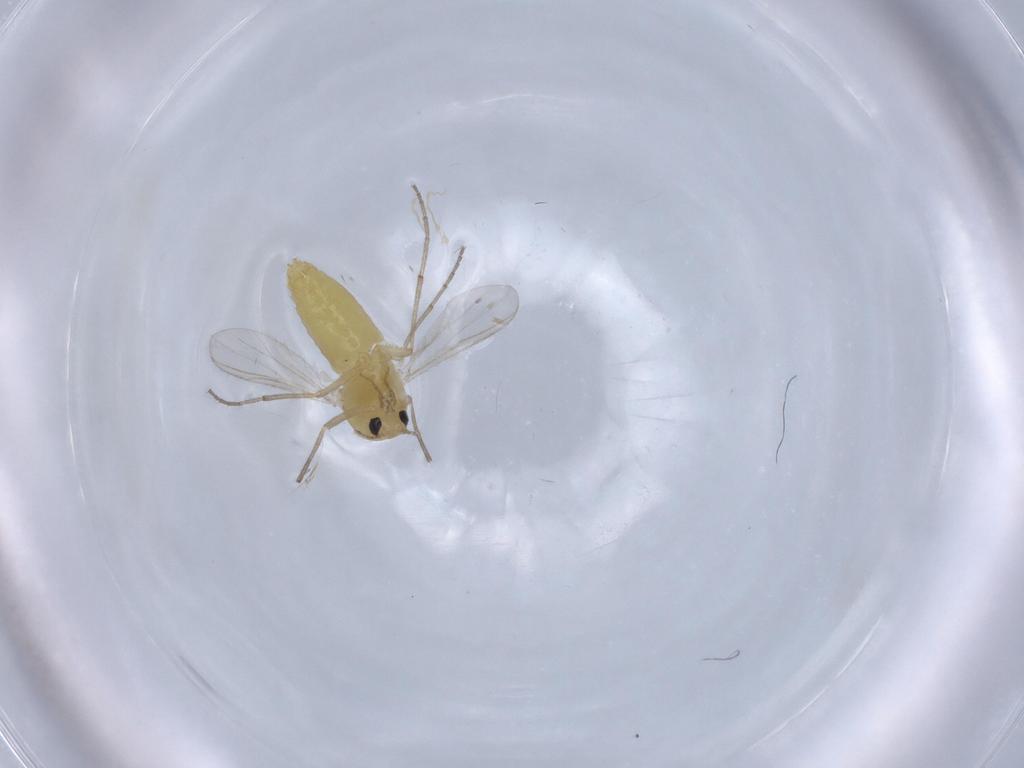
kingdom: Animalia
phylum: Arthropoda
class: Insecta
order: Diptera
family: Chironomidae
